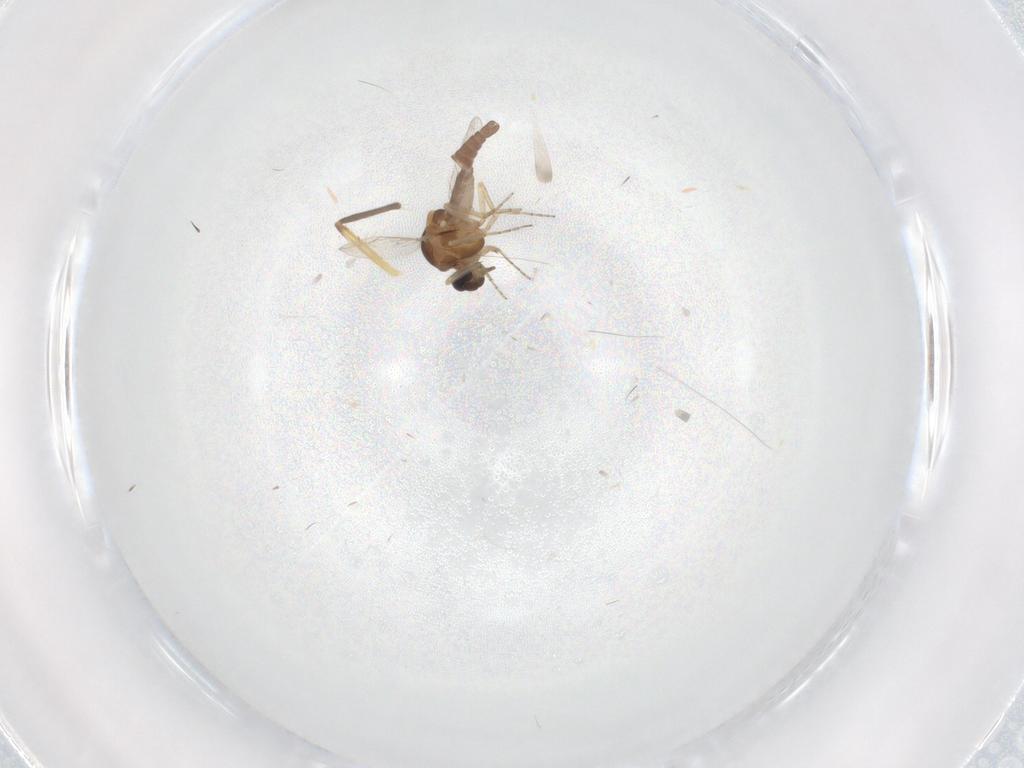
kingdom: Animalia
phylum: Arthropoda
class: Insecta
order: Diptera
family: Ceratopogonidae
